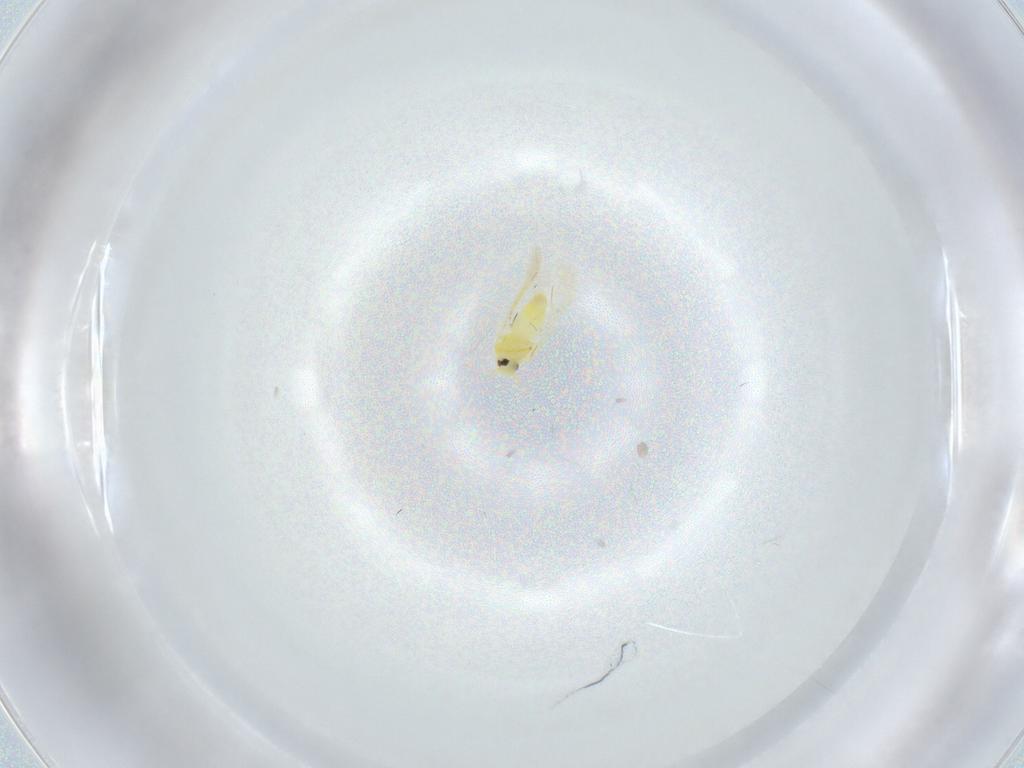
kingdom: Animalia
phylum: Arthropoda
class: Insecta
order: Hemiptera
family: Aleyrodidae
